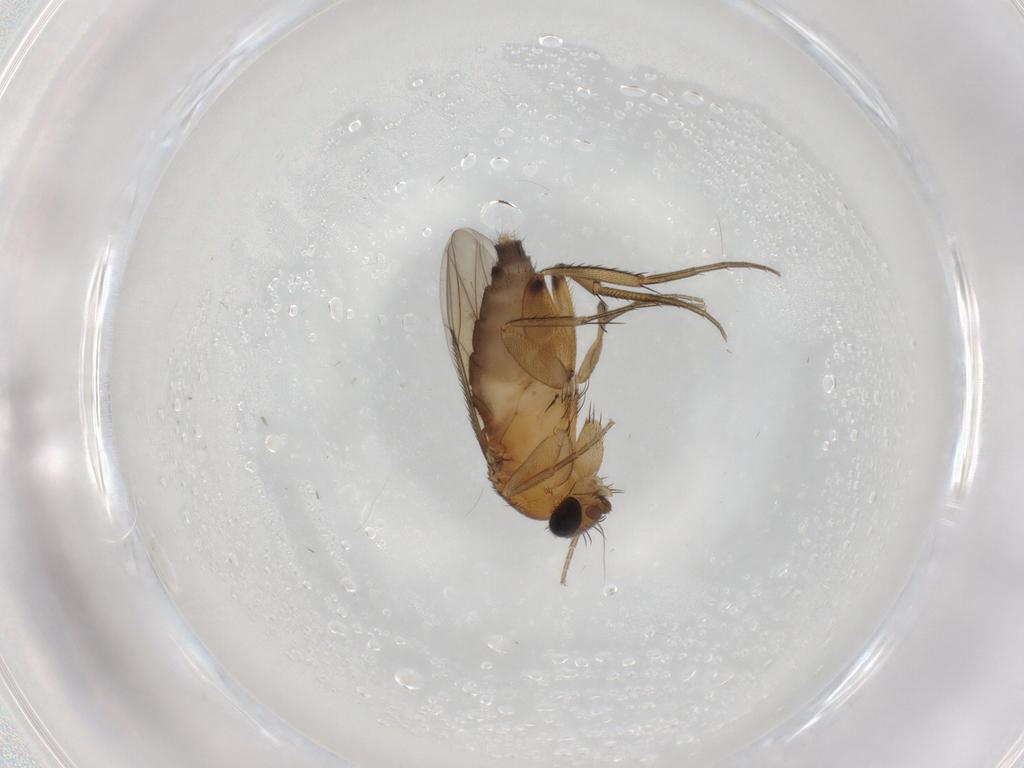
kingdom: Animalia
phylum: Arthropoda
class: Insecta
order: Diptera
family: Phoridae
